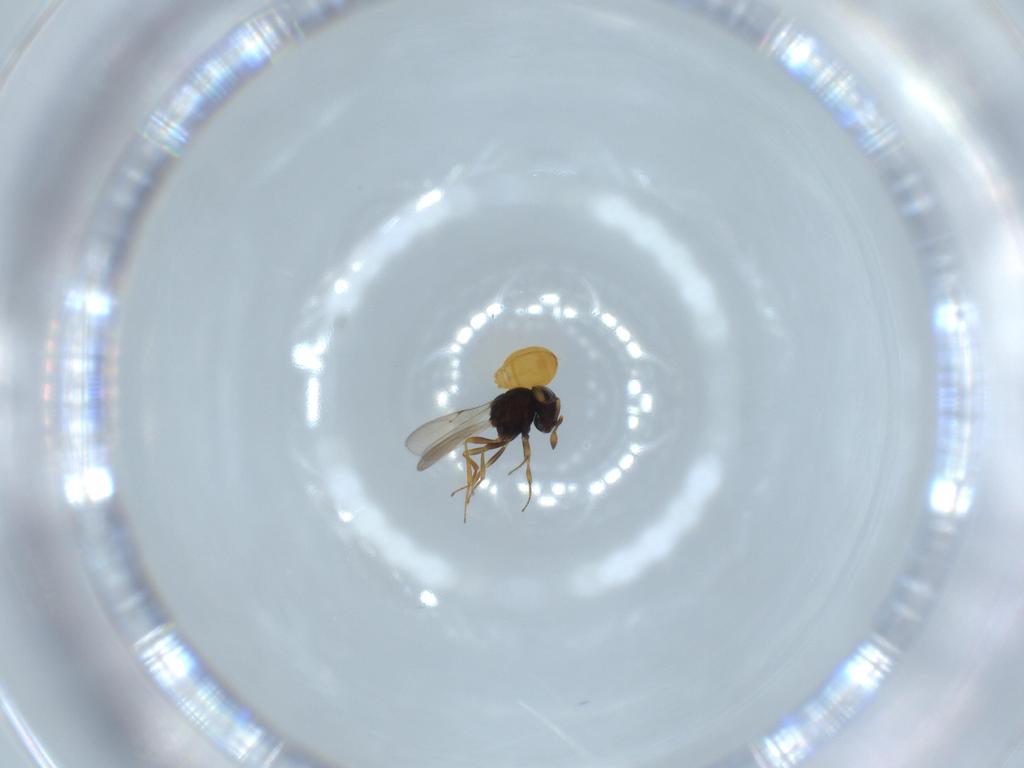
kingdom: Animalia
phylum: Arthropoda
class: Insecta
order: Hymenoptera
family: Scelionidae
